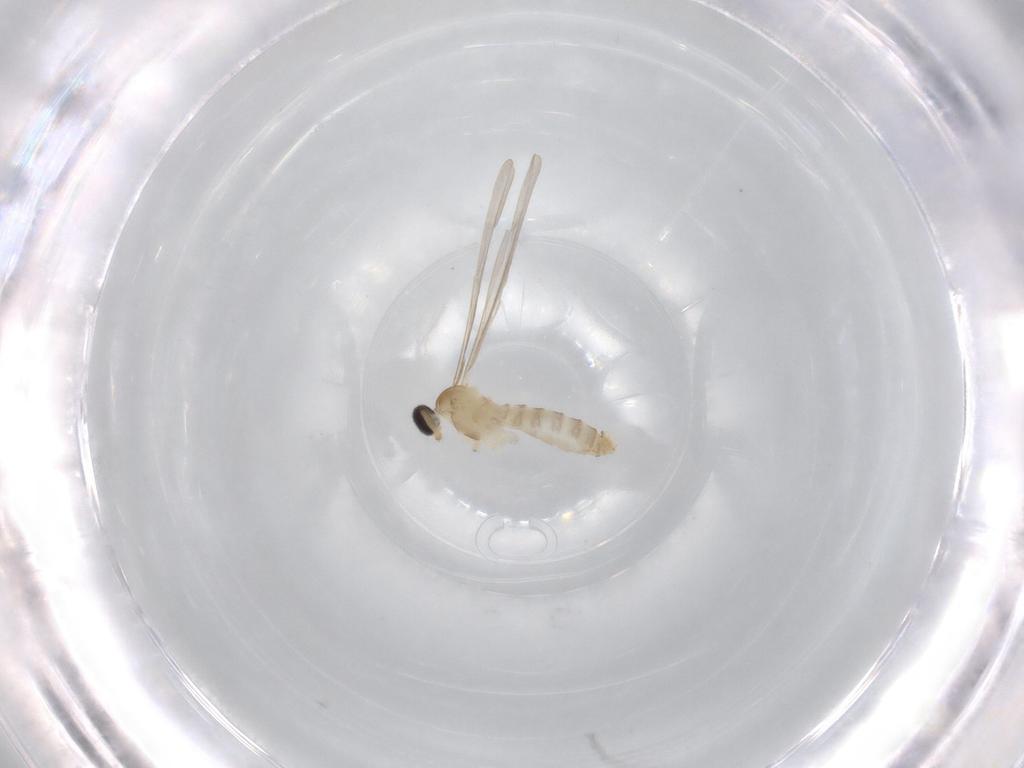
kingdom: Animalia
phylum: Arthropoda
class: Insecta
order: Diptera
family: Cecidomyiidae
